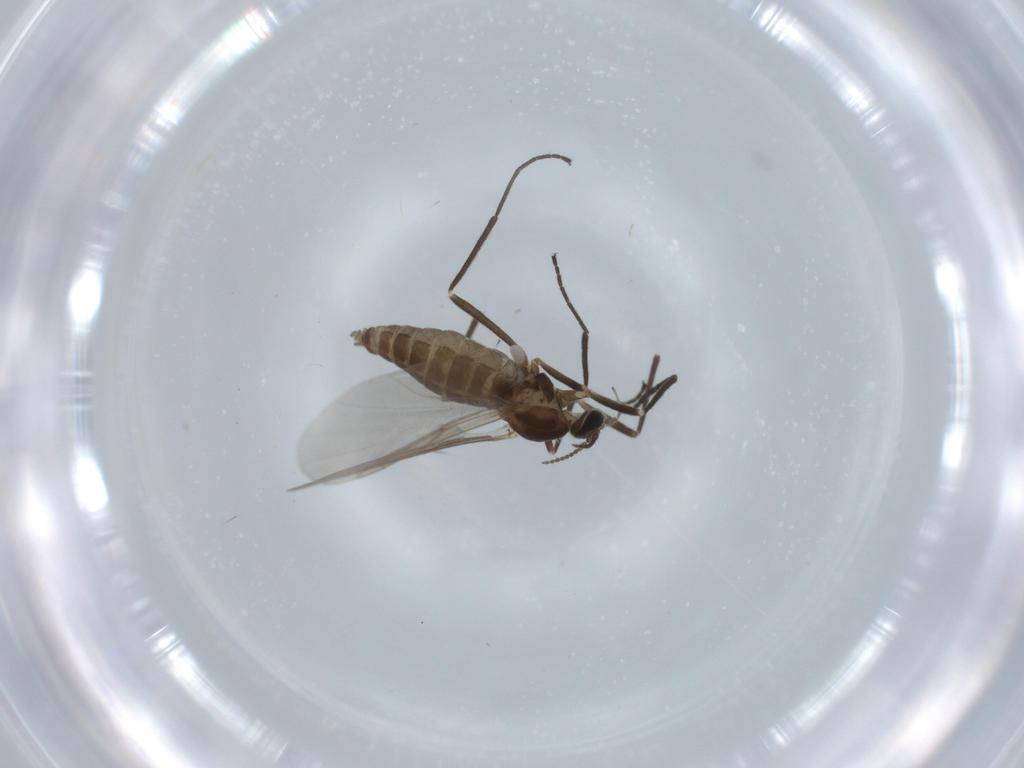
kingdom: Animalia
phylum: Arthropoda
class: Insecta
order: Diptera
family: Cecidomyiidae
